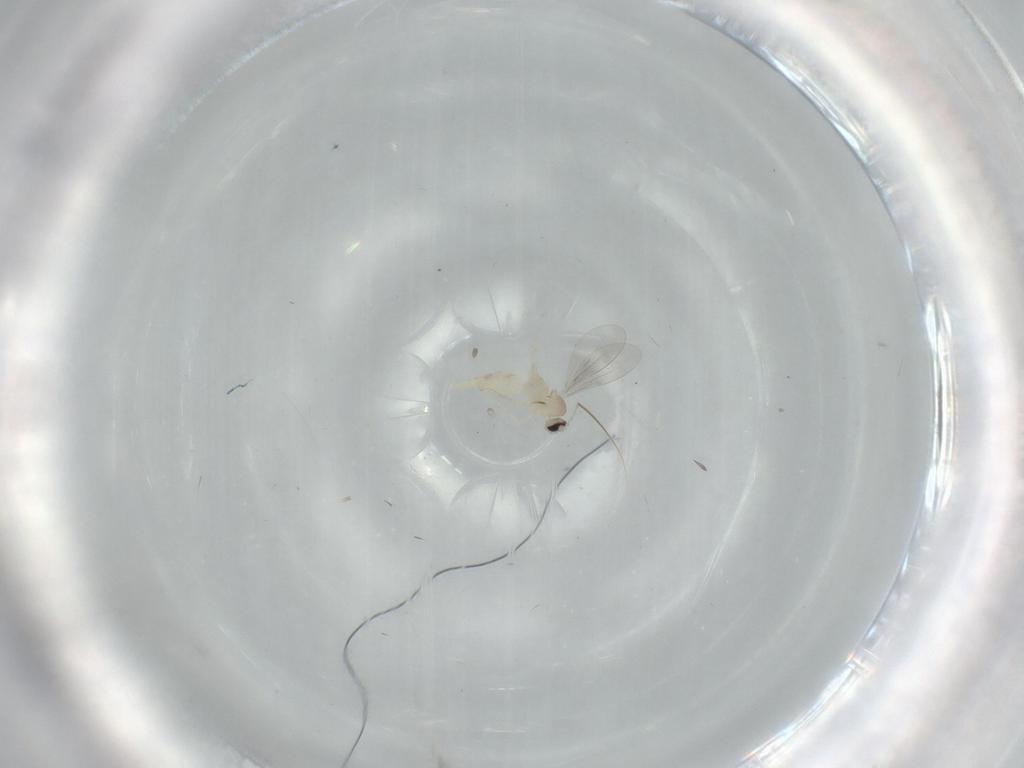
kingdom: Animalia
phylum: Arthropoda
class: Insecta
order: Diptera
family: Cecidomyiidae
